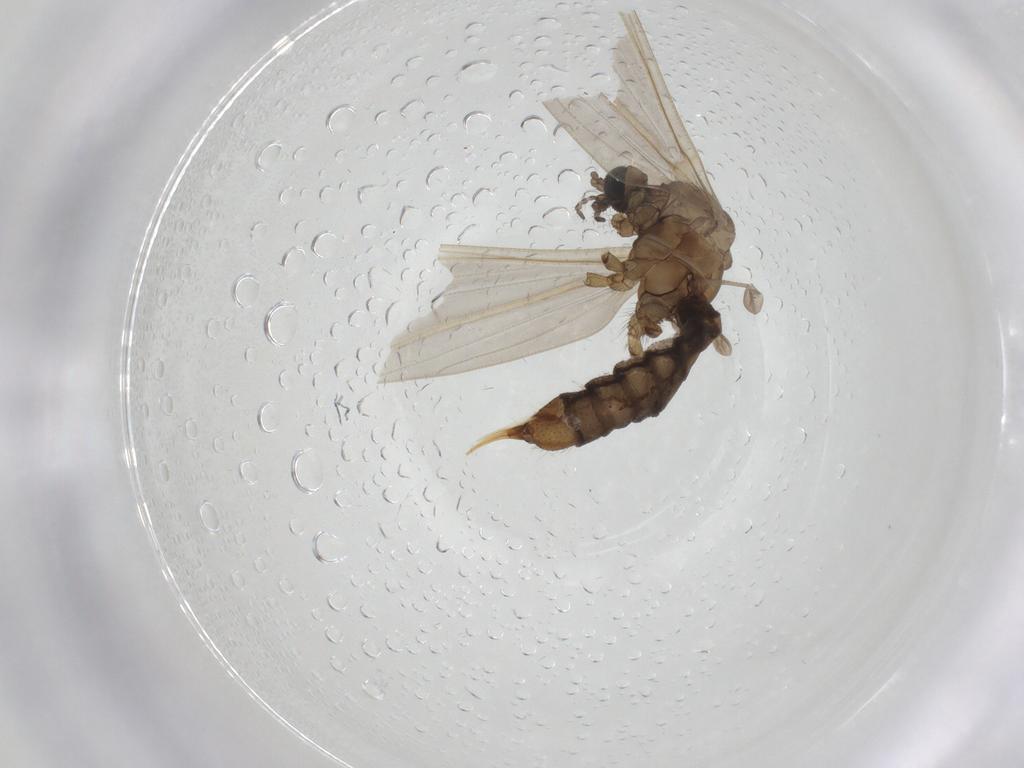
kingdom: Animalia
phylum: Arthropoda
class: Insecta
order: Diptera
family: Limoniidae
